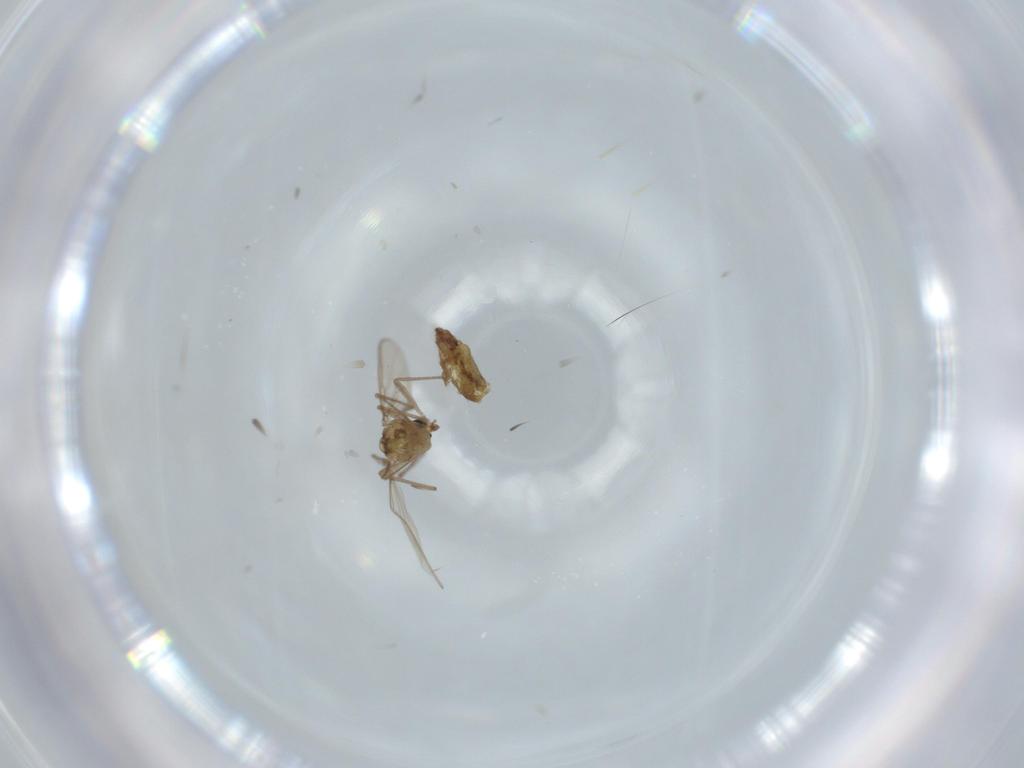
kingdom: Animalia
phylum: Arthropoda
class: Insecta
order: Diptera
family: Chironomidae
